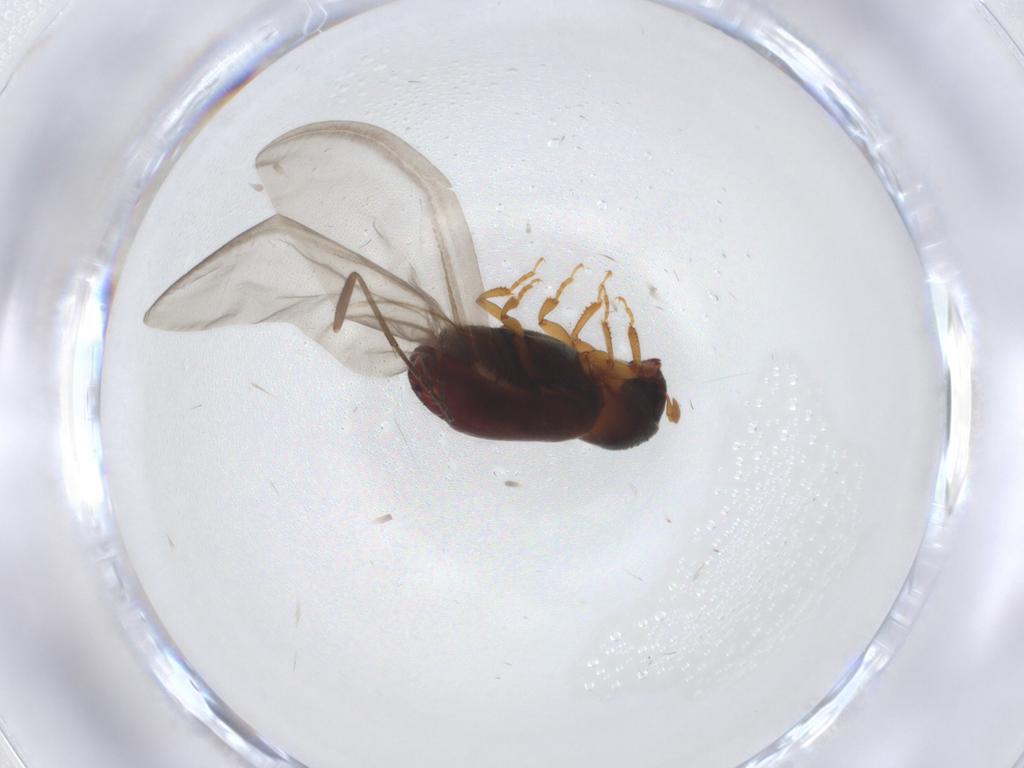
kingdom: Animalia
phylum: Arthropoda
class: Insecta
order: Coleoptera
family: Curculionidae
